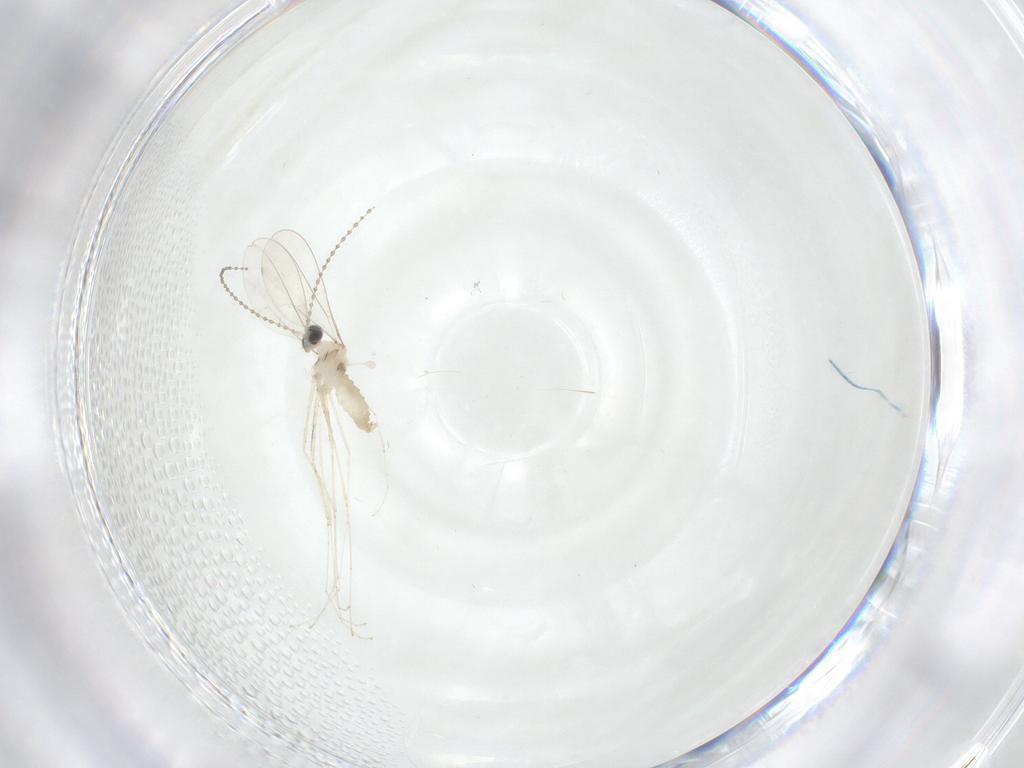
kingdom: Animalia
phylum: Arthropoda
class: Insecta
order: Diptera
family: Cecidomyiidae
